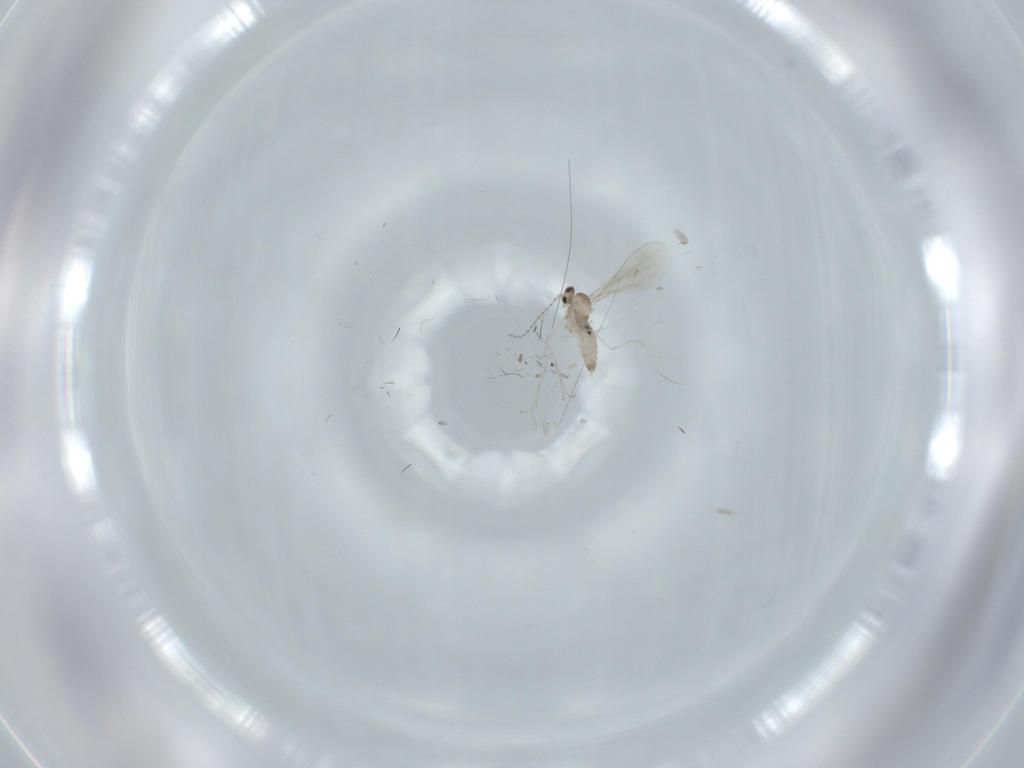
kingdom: Animalia
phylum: Arthropoda
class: Insecta
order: Diptera
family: Cecidomyiidae
